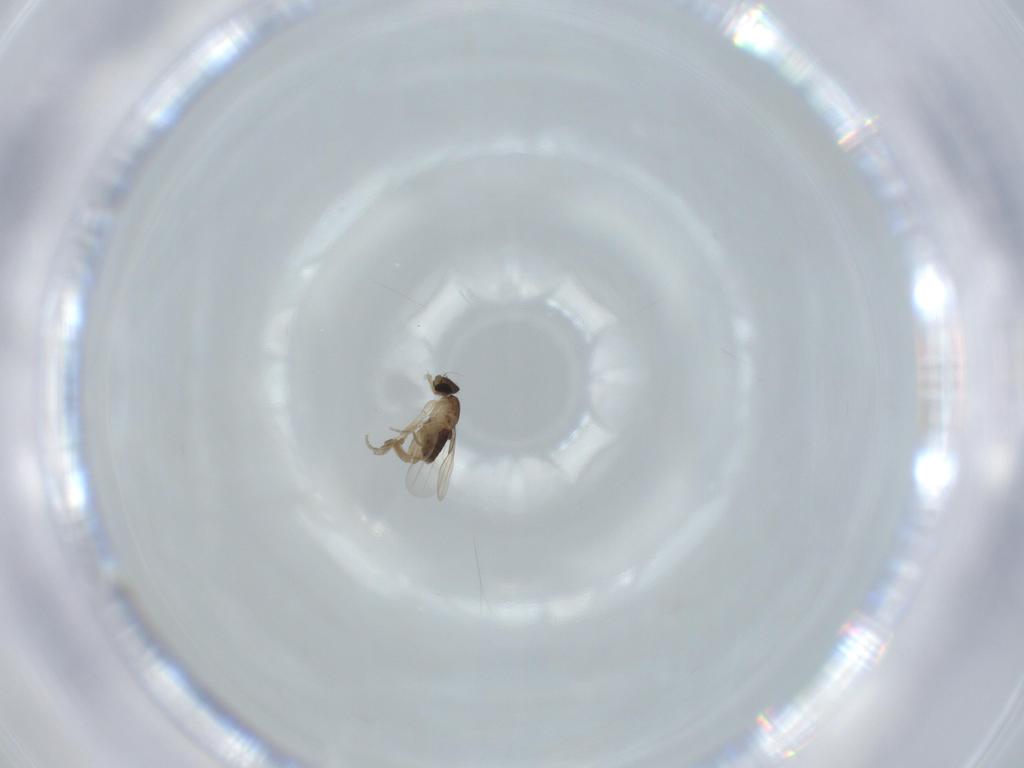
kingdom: Animalia
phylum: Arthropoda
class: Insecta
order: Diptera
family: Phoridae
